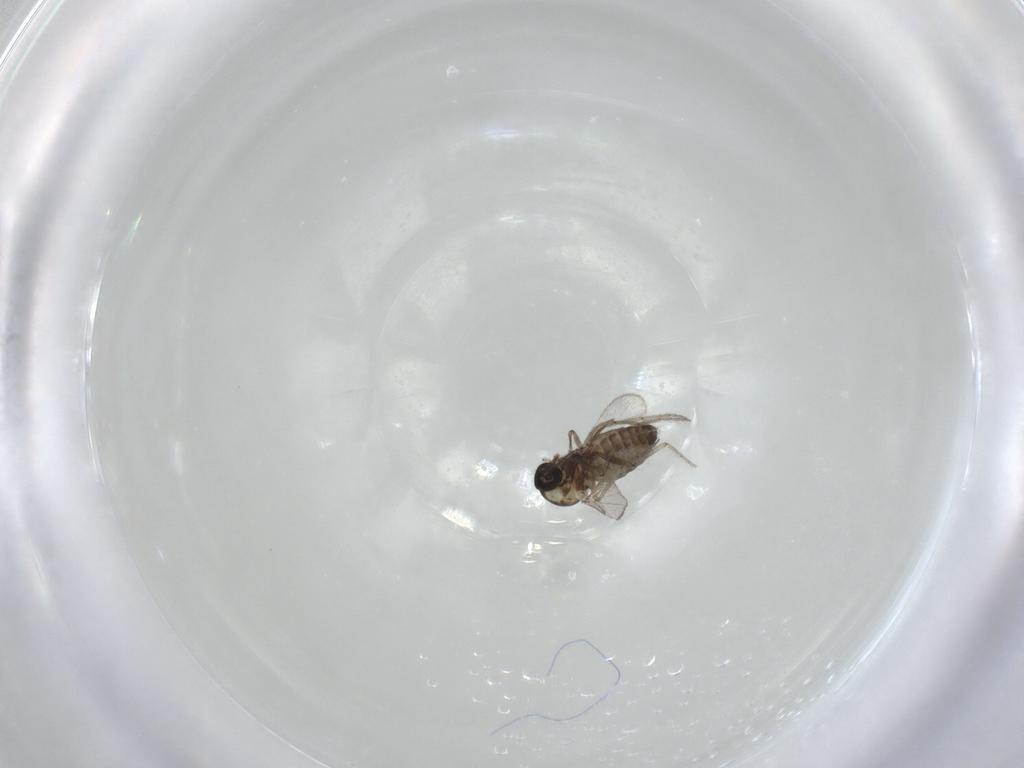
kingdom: Animalia
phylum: Arthropoda
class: Insecta
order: Diptera
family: Ceratopogonidae
